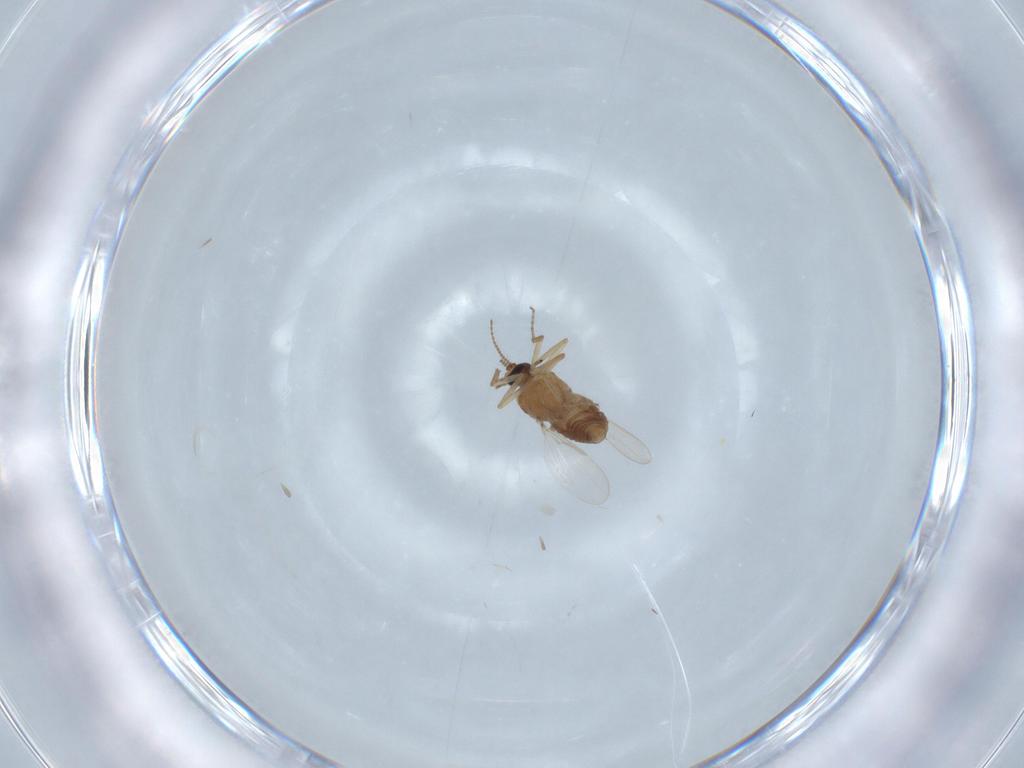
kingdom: Animalia
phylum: Arthropoda
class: Insecta
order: Diptera
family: Ceratopogonidae
